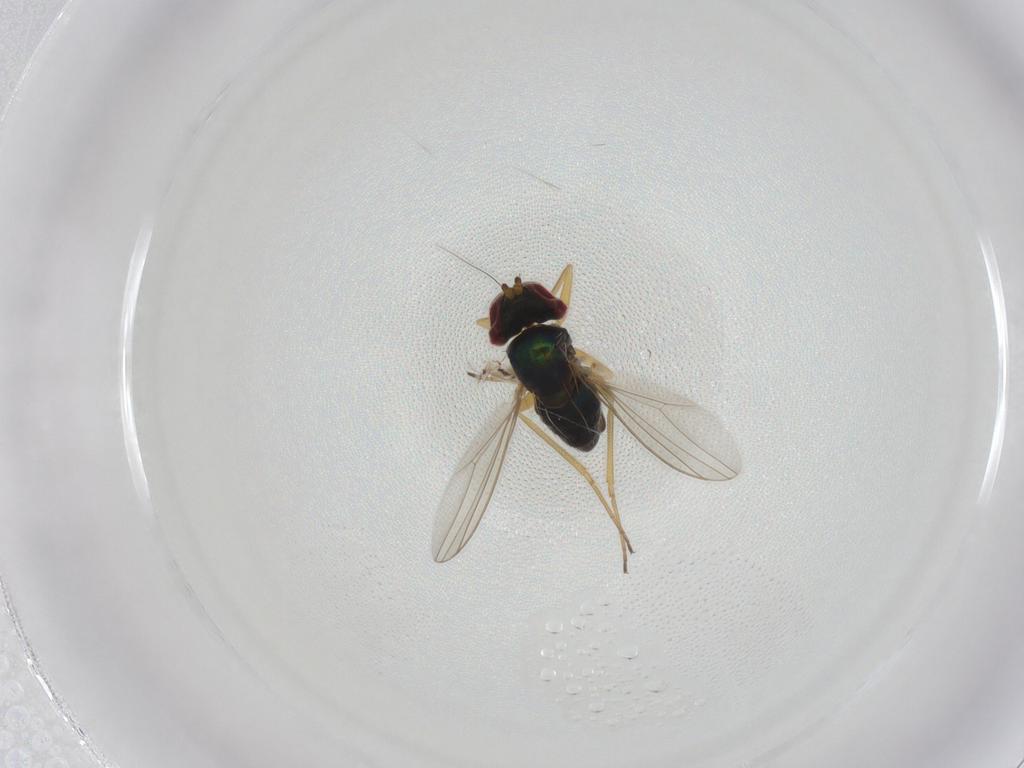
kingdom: Animalia
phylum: Arthropoda
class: Insecta
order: Diptera
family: Dolichopodidae
